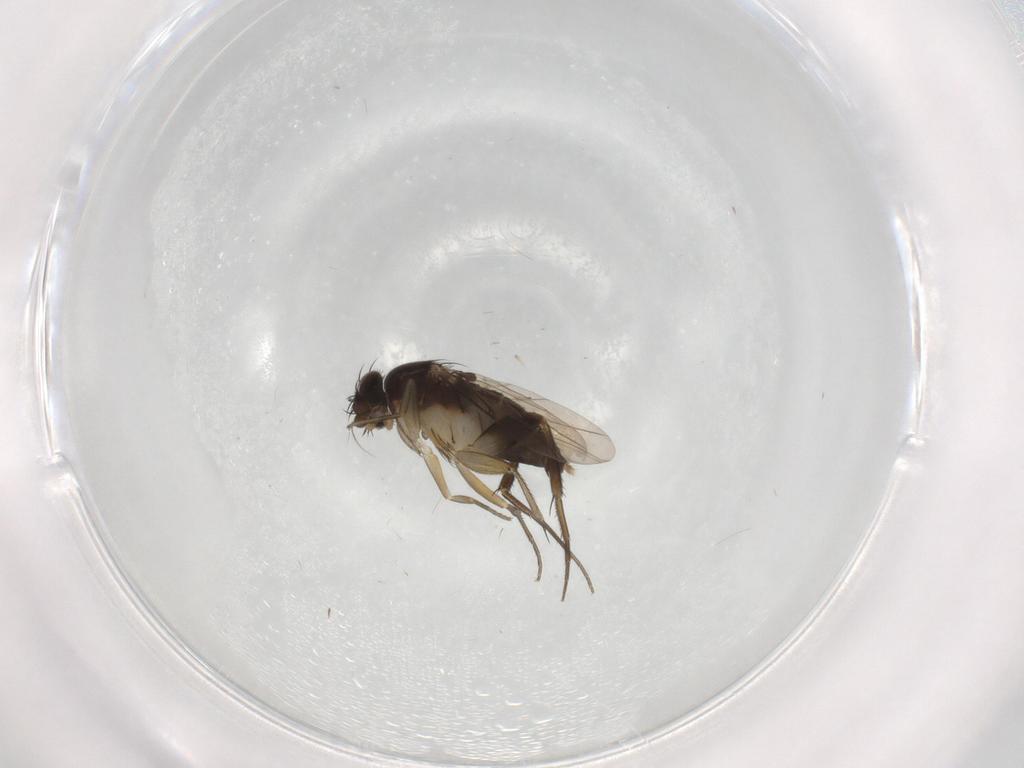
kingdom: Animalia
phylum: Arthropoda
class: Insecta
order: Diptera
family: Phoridae
